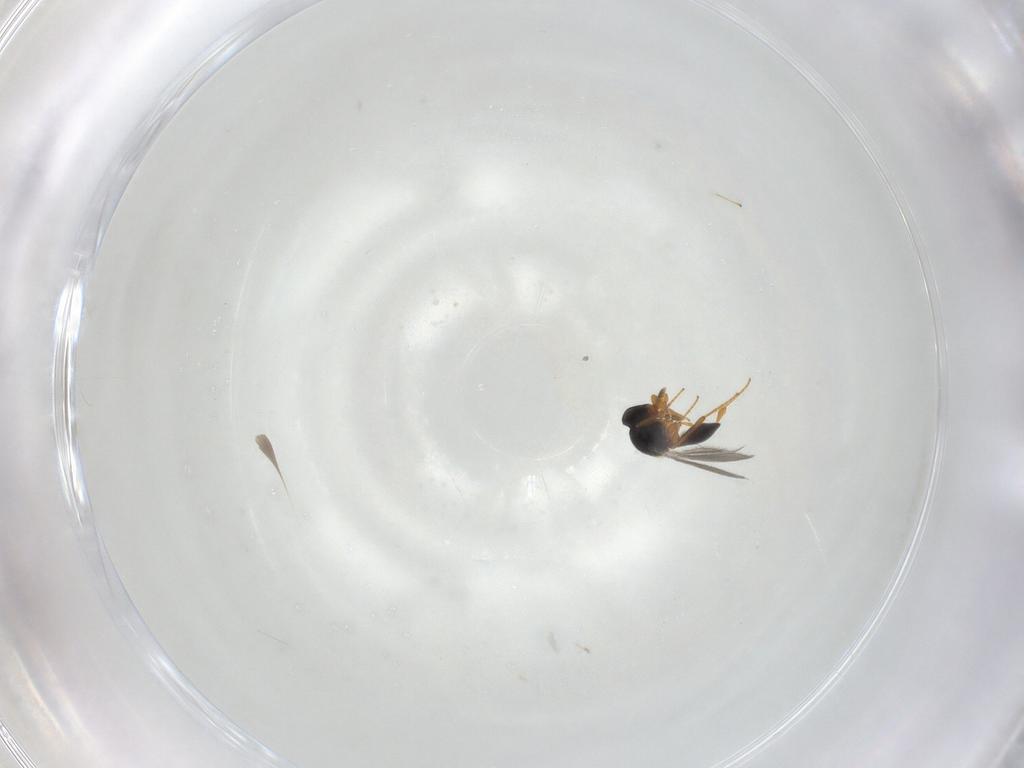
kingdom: Animalia
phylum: Arthropoda
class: Insecta
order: Hymenoptera
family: Platygastridae
